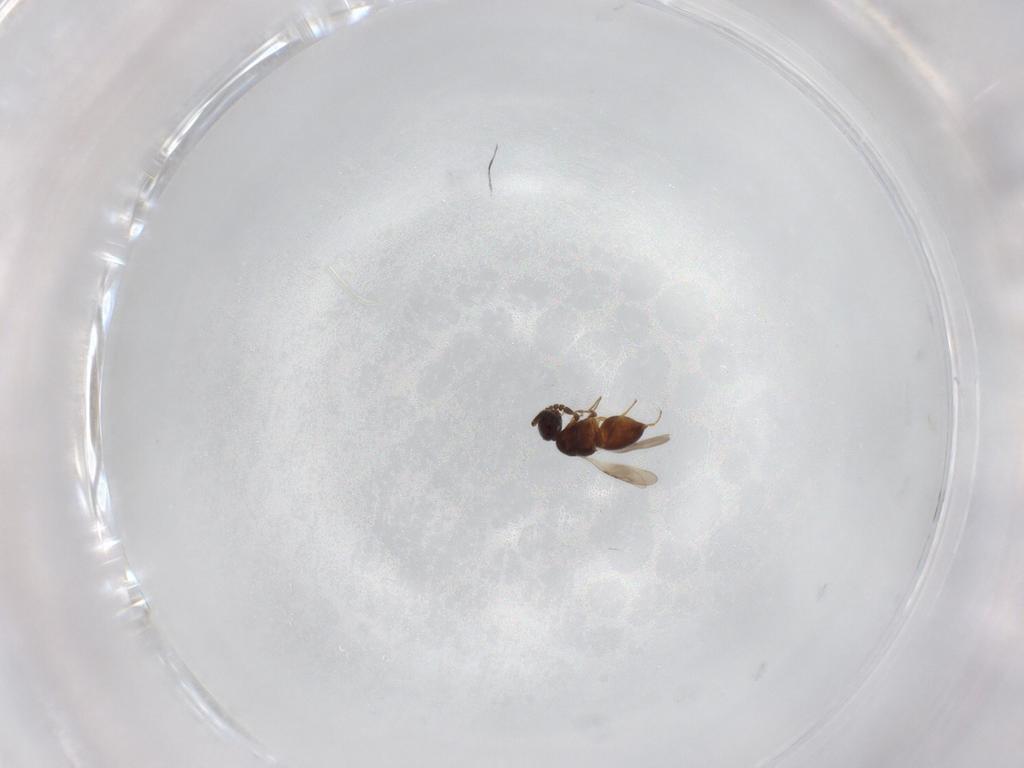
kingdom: Animalia
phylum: Arthropoda
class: Insecta
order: Hymenoptera
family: Ceraphronidae
